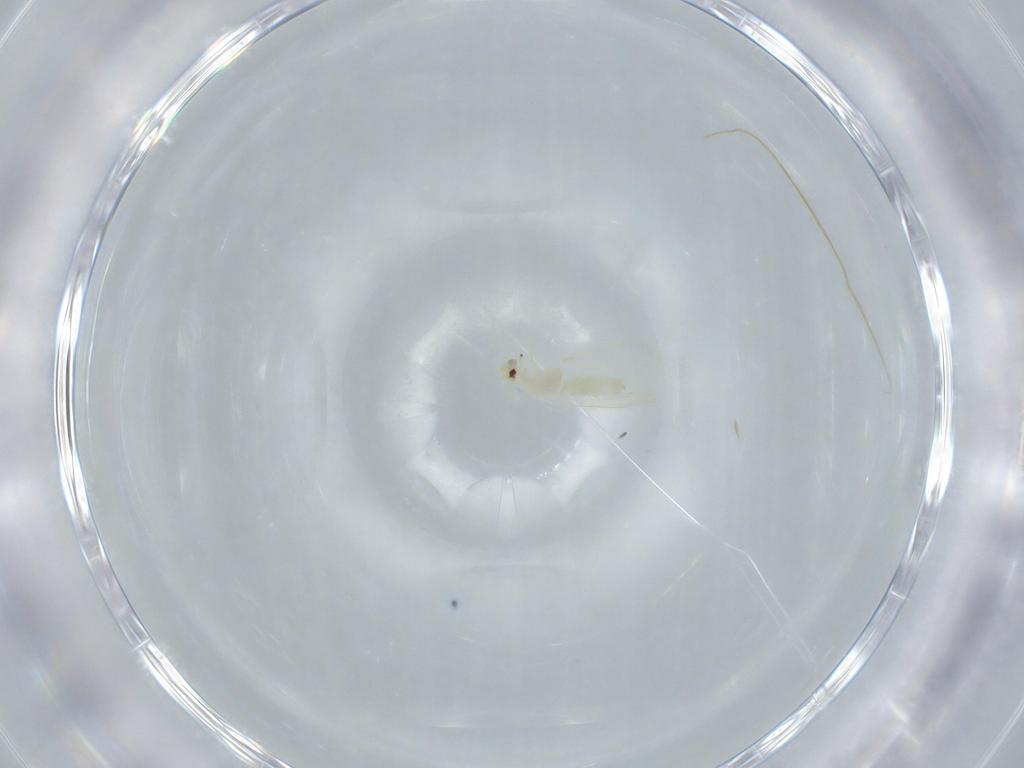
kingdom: Animalia
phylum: Arthropoda
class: Insecta
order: Hemiptera
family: Aleyrodidae
